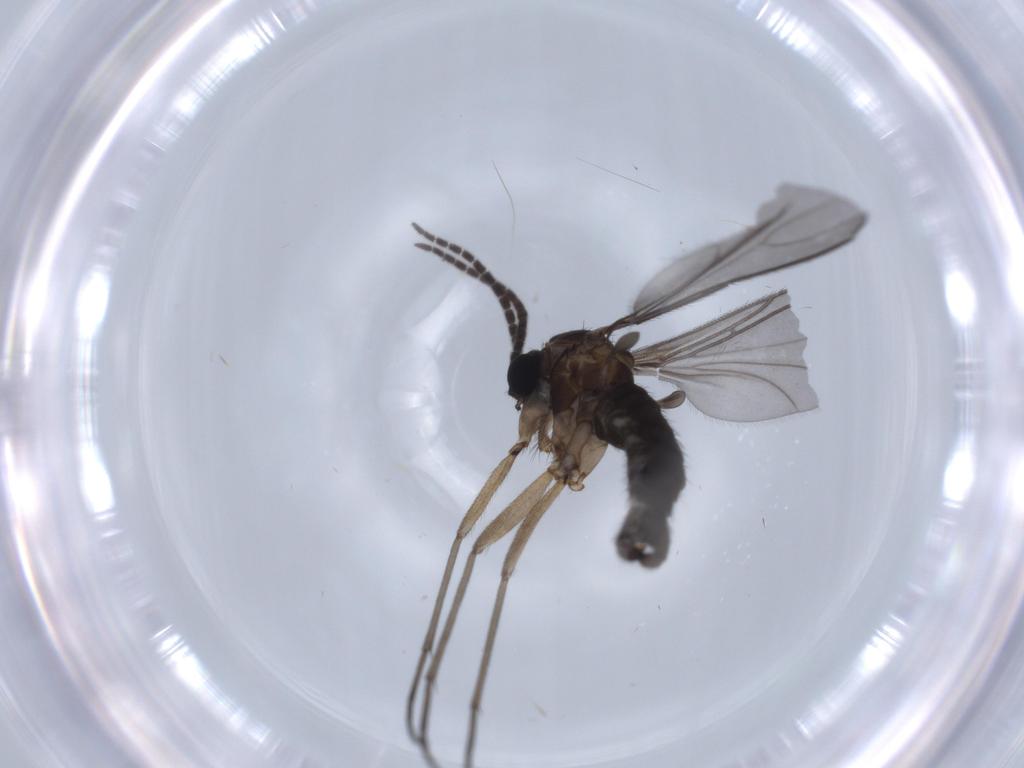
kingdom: Animalia
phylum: Arthropoda
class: Insecta
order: Diptera
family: Sciaridae
